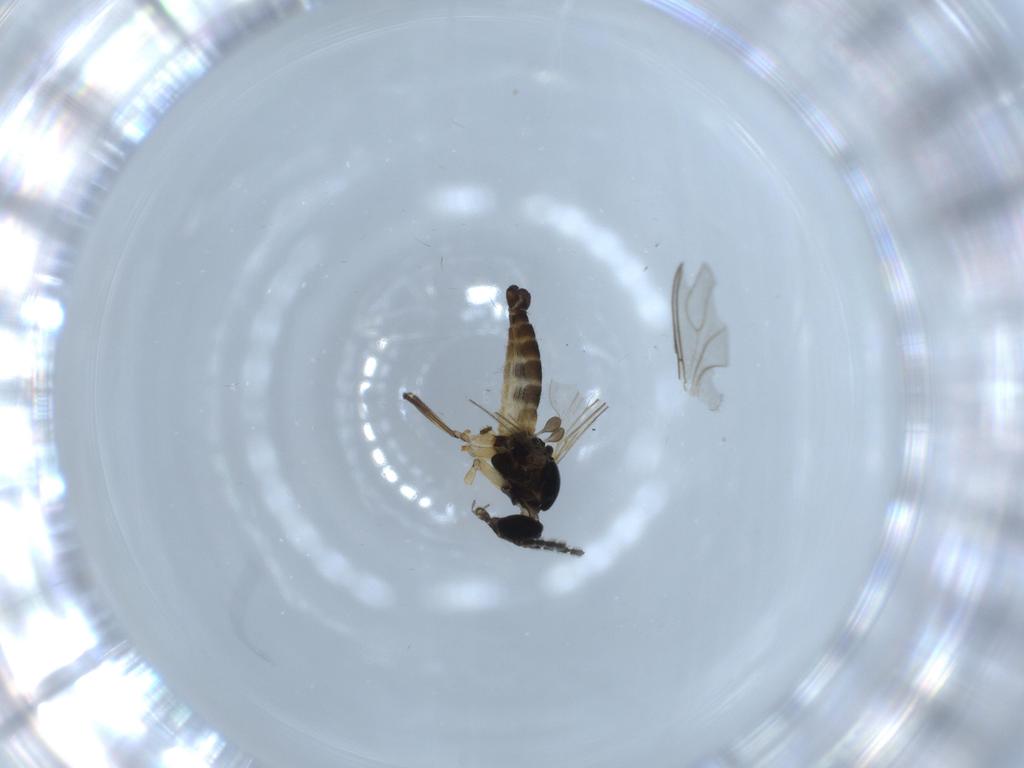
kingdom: Animalia
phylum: Arthropoda
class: Insecta
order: Diptera
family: Sciaridae
